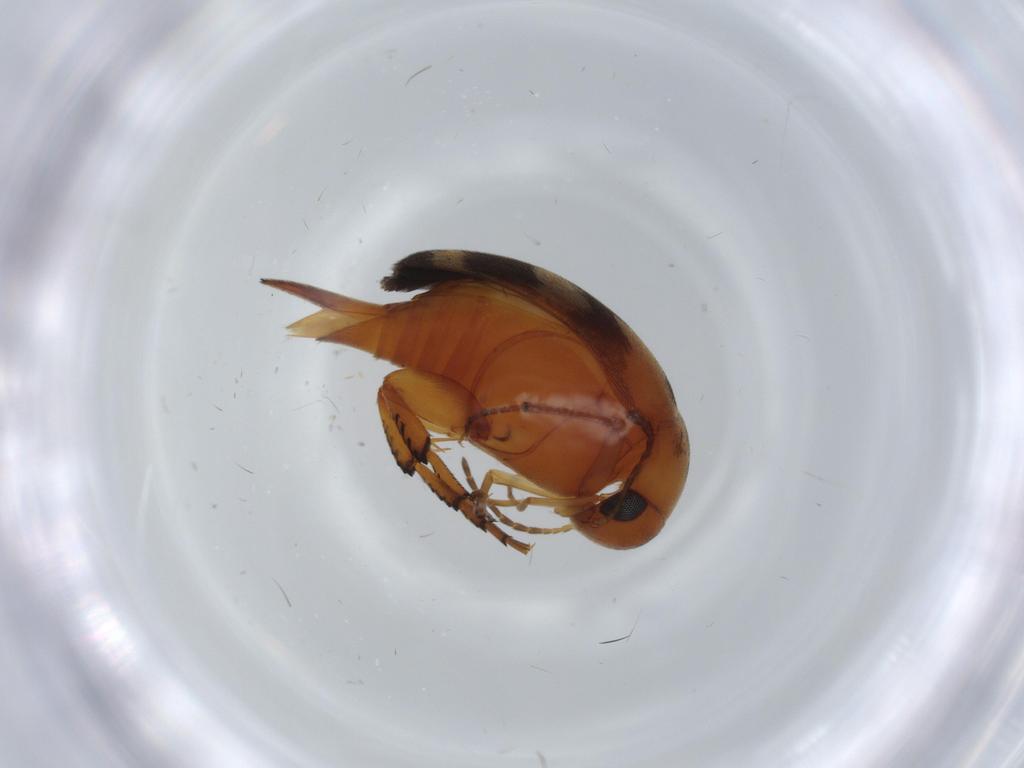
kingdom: Animalia
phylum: Arthropoda
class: Insecta
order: Coleoptera
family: Mordellidae
